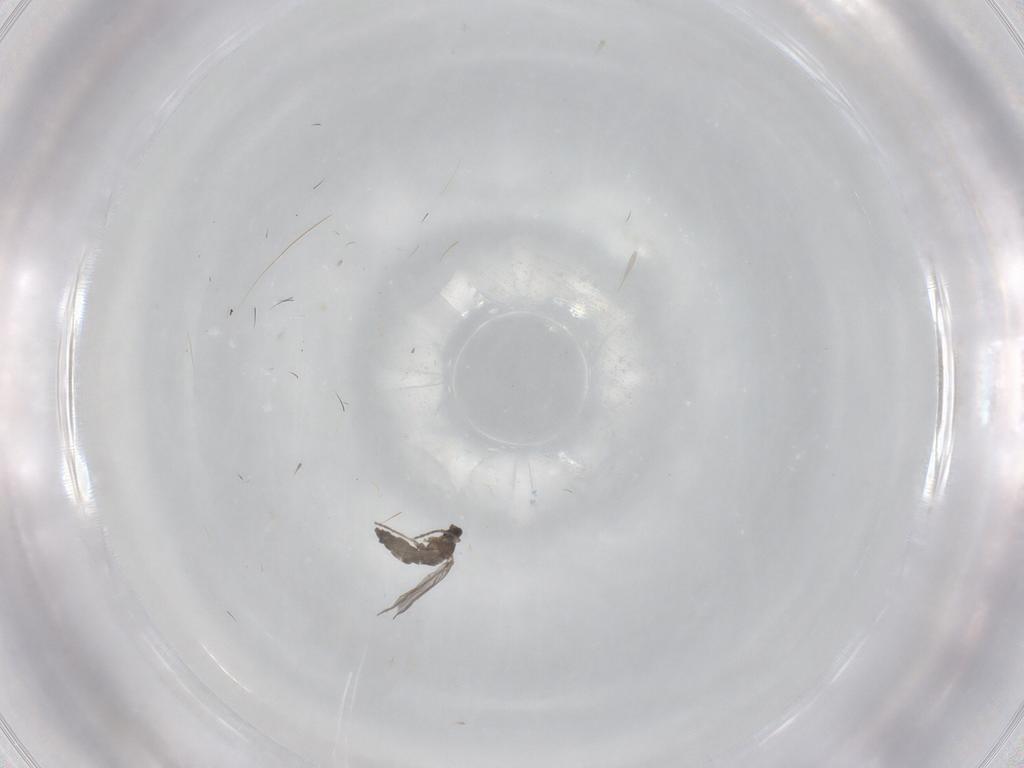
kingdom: Animalia
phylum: Arthropoda
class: Insecta
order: Diptera
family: Sciaridae
